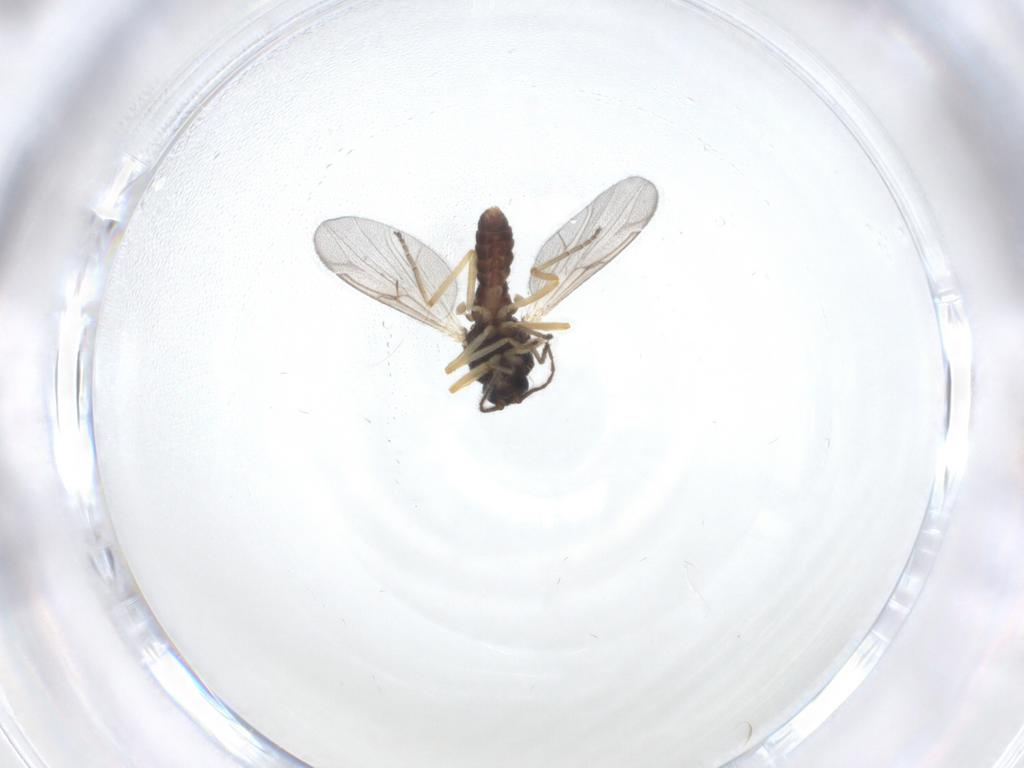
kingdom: Animalia
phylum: Arthropoda
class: Insecta
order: Diptera
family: Ceratopogonidae
